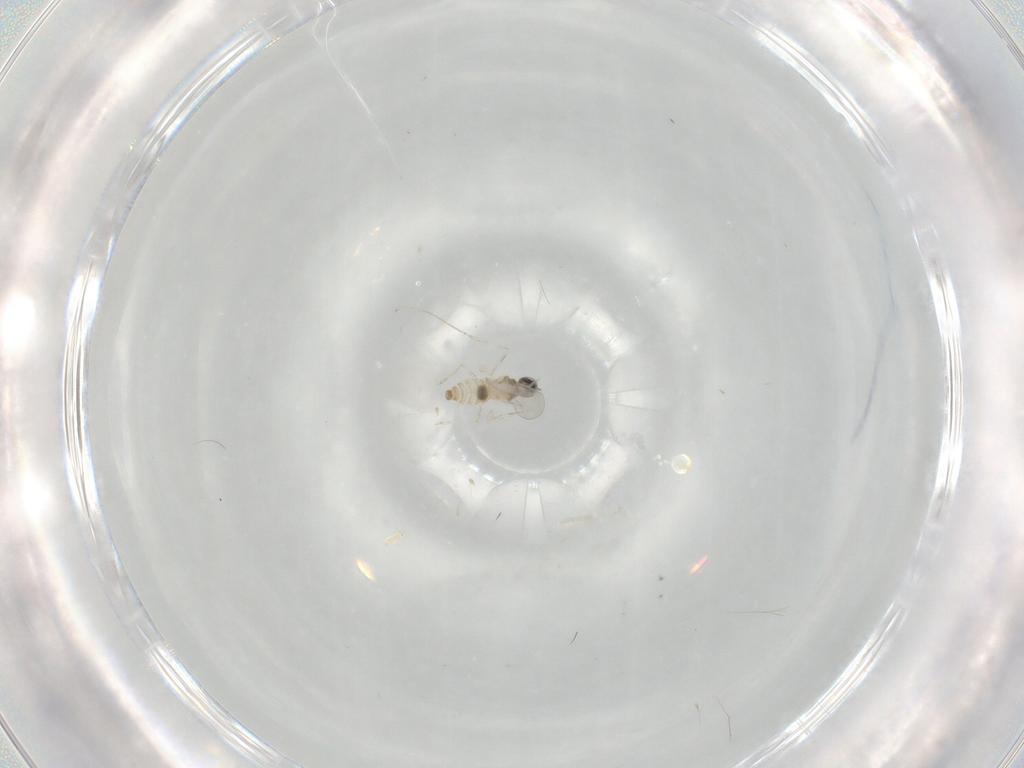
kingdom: Animalia
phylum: Arthropoda
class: Insecta
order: Diptera
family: Cecidomyiidae
